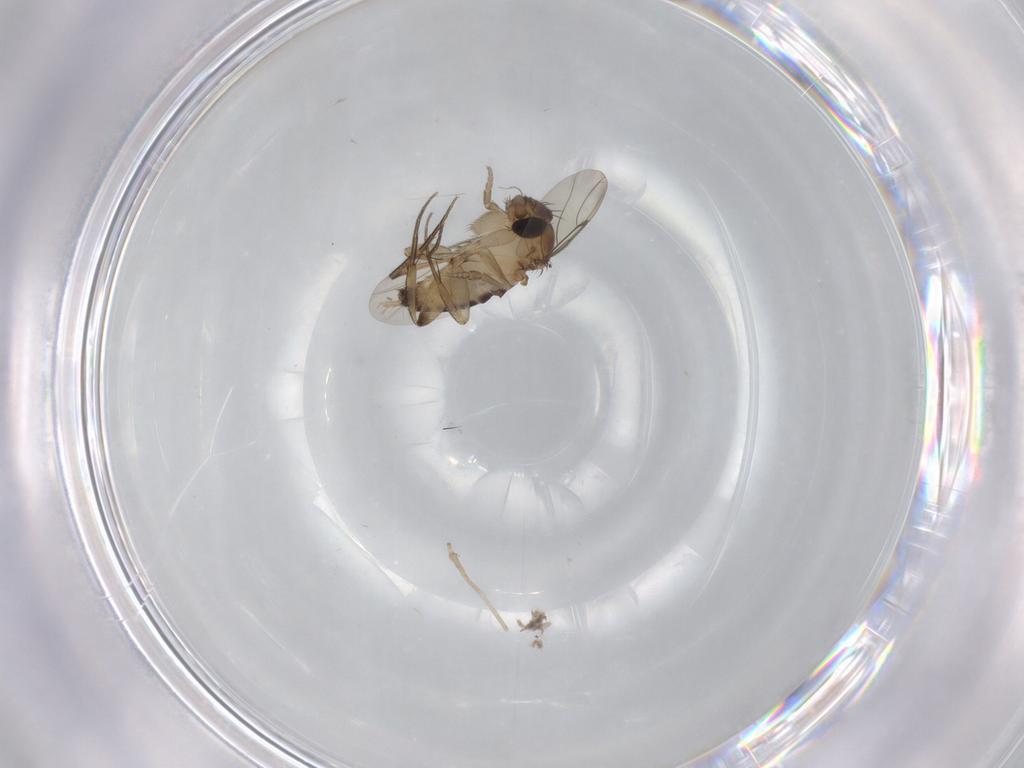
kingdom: Animalia
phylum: Arthropoda
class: Insecta
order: Diptera
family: Cecidomyiidae
